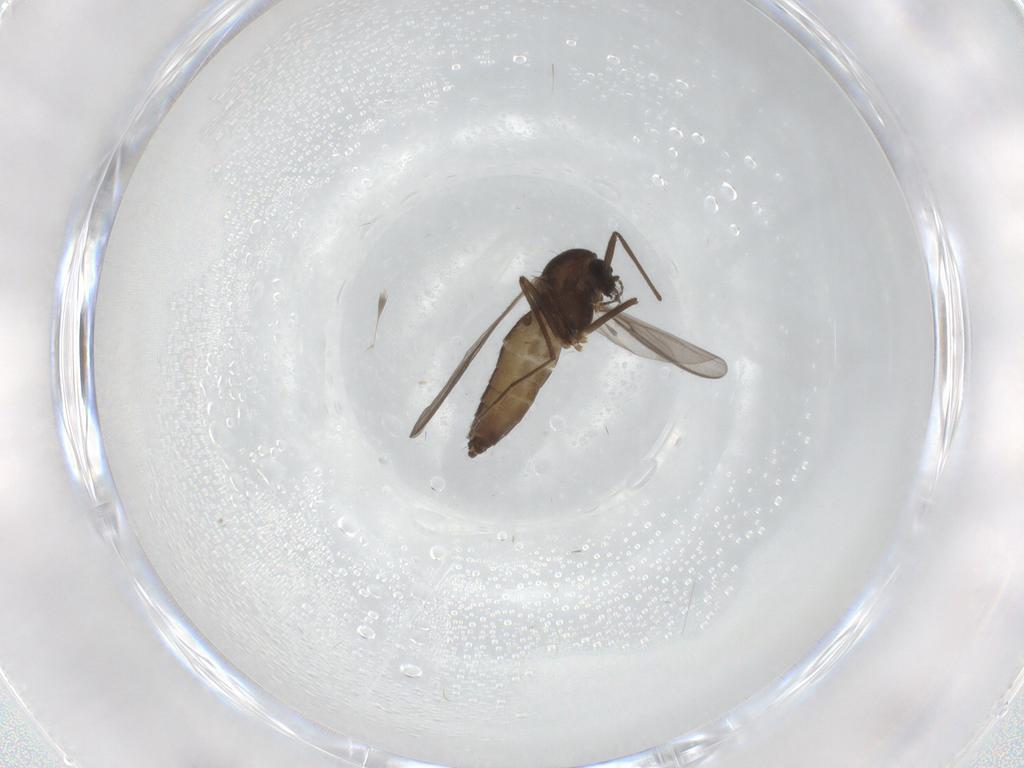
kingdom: Animalia
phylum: Arthropoda
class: Insecta
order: Diptera
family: Chironomidae
